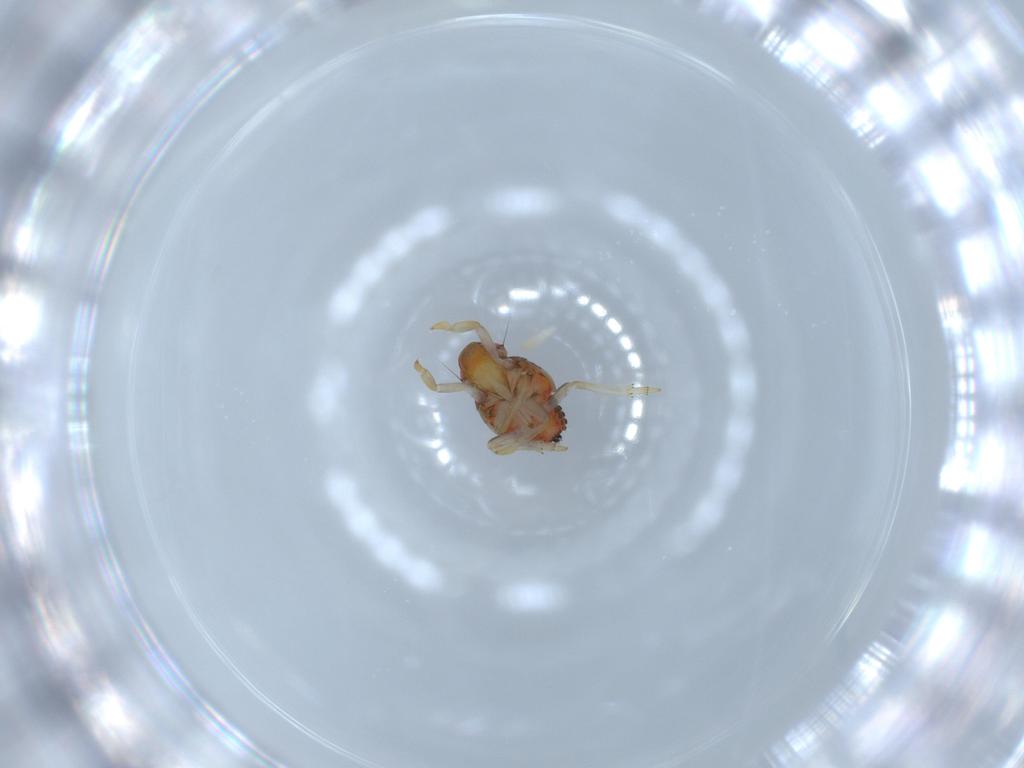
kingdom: Animalia
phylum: Arthropoda
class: Insecta
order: Hemiptera
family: Issidae
